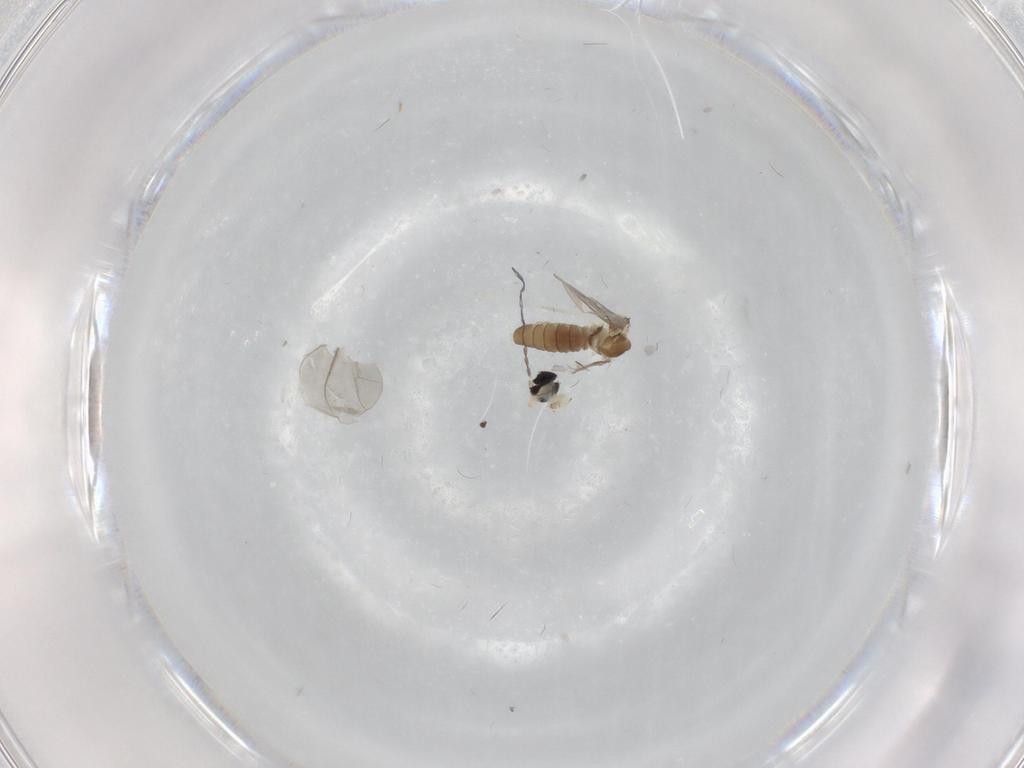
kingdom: Animalia
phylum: Arthropoda
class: Insecta
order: Diptera
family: Cecidomyiidae
